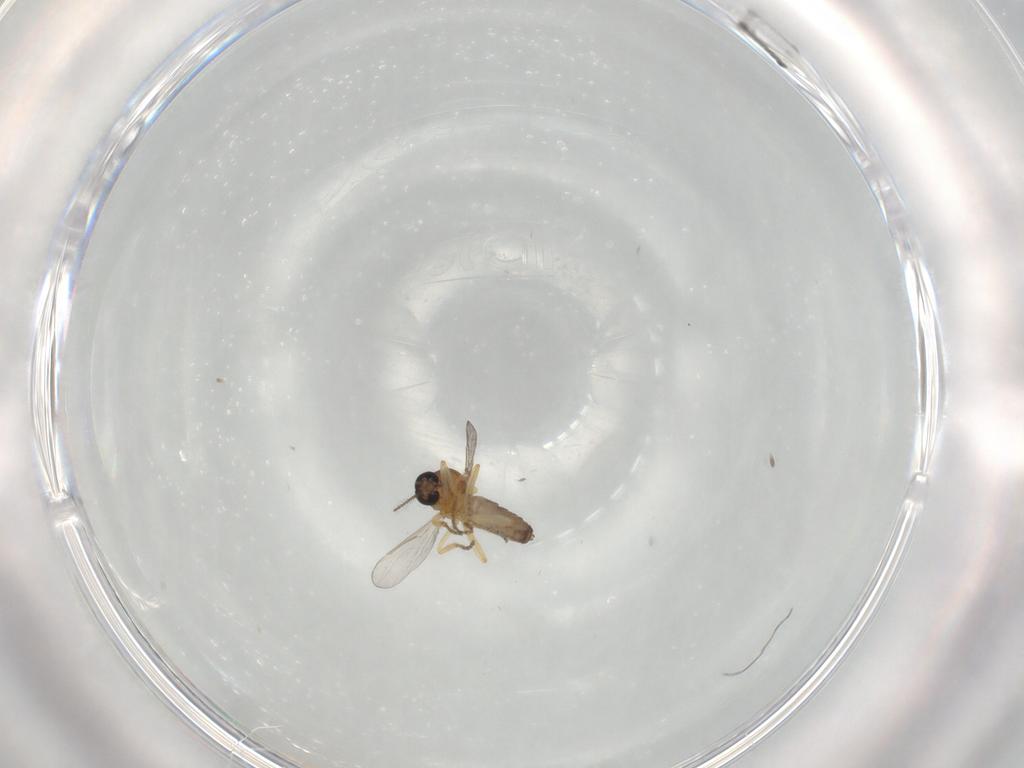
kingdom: Animalia
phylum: Arthropoda
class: Insecta
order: Diptera
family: Ceratopogonidae
